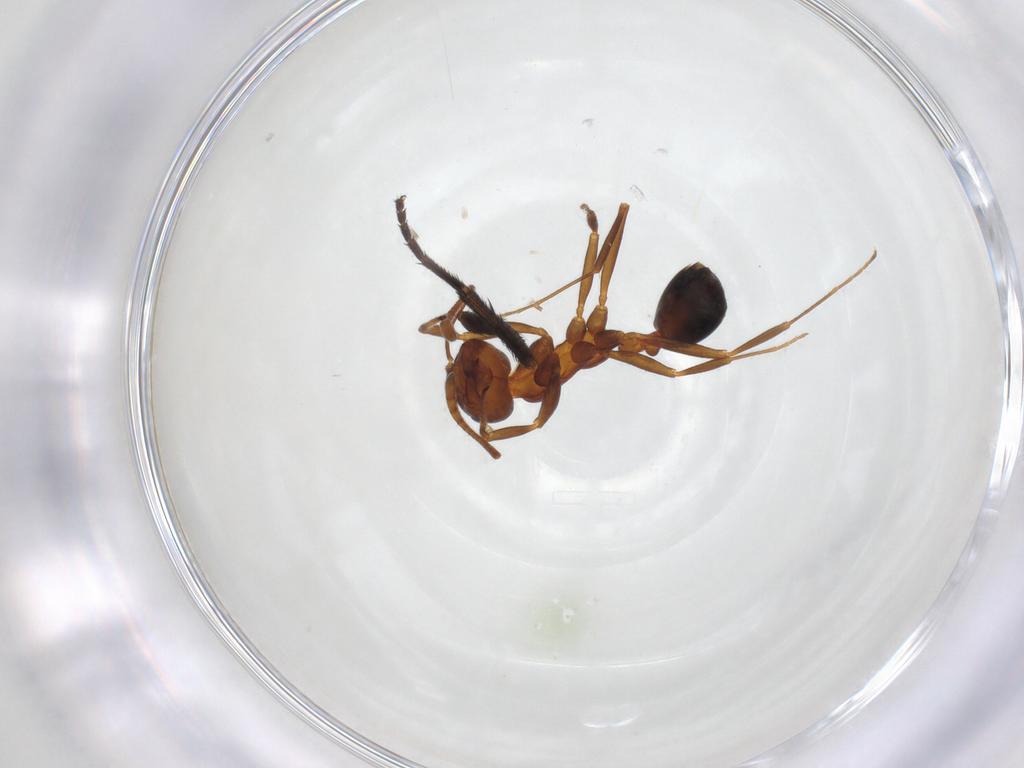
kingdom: Animalia
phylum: Arthropoda
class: Insecta
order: Hymenoptera
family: Formicidae
